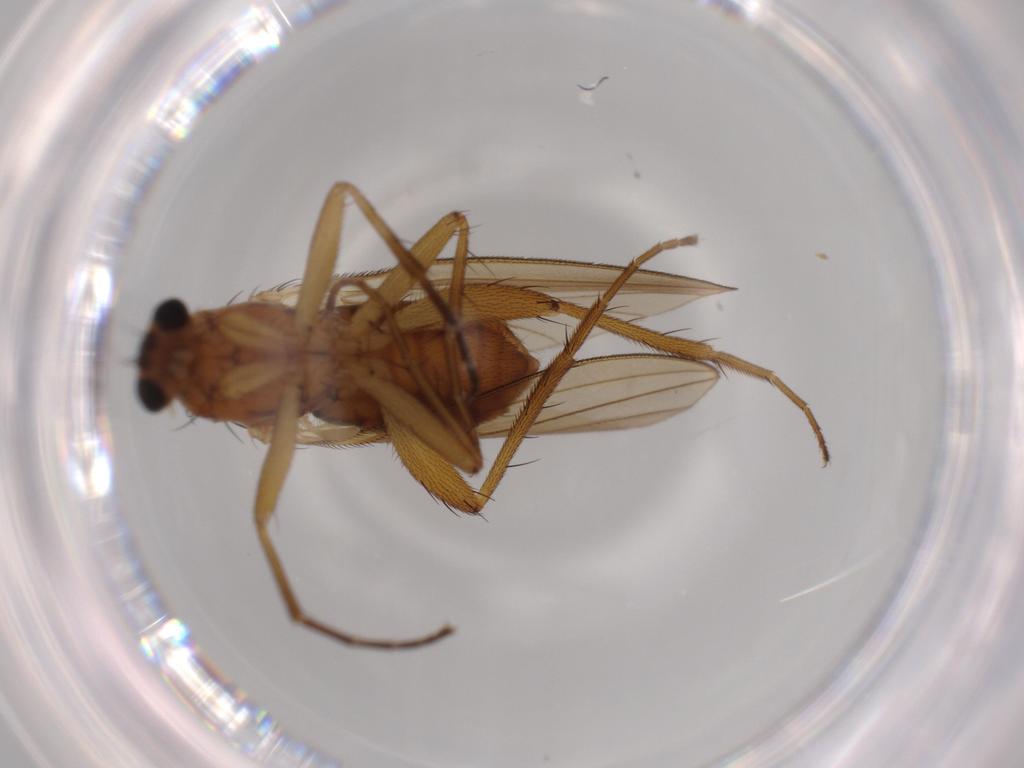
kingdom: Animalia
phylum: Arthropoda
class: Insecta
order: Diptera
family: Lonchopteridae
